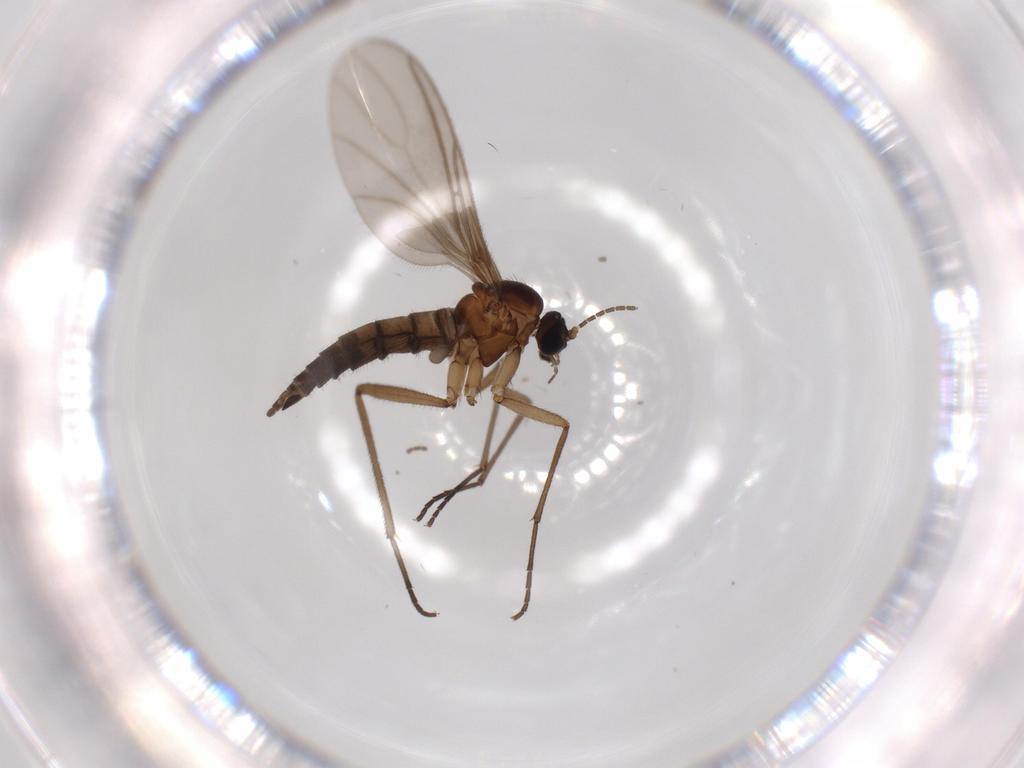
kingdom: Animalia
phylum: Arthropoda
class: Insecta
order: Diptera
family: Sciaridae
